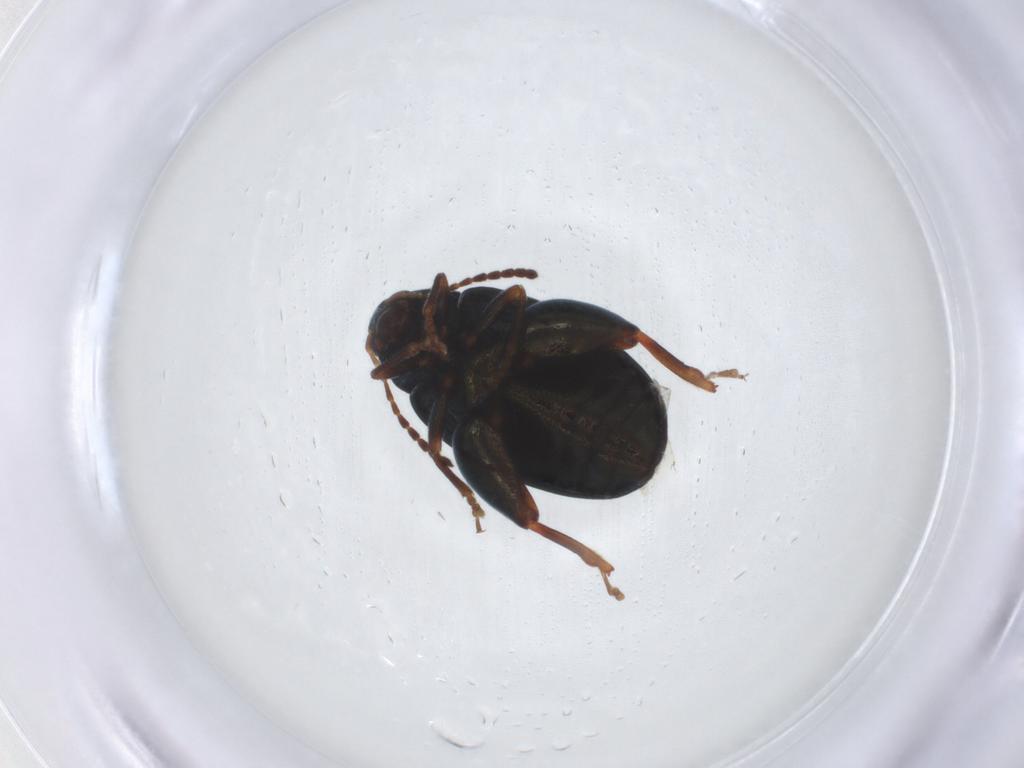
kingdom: Animalia
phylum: Arthropoda
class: Insecta
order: Coleoptera
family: Chrysomelidae
